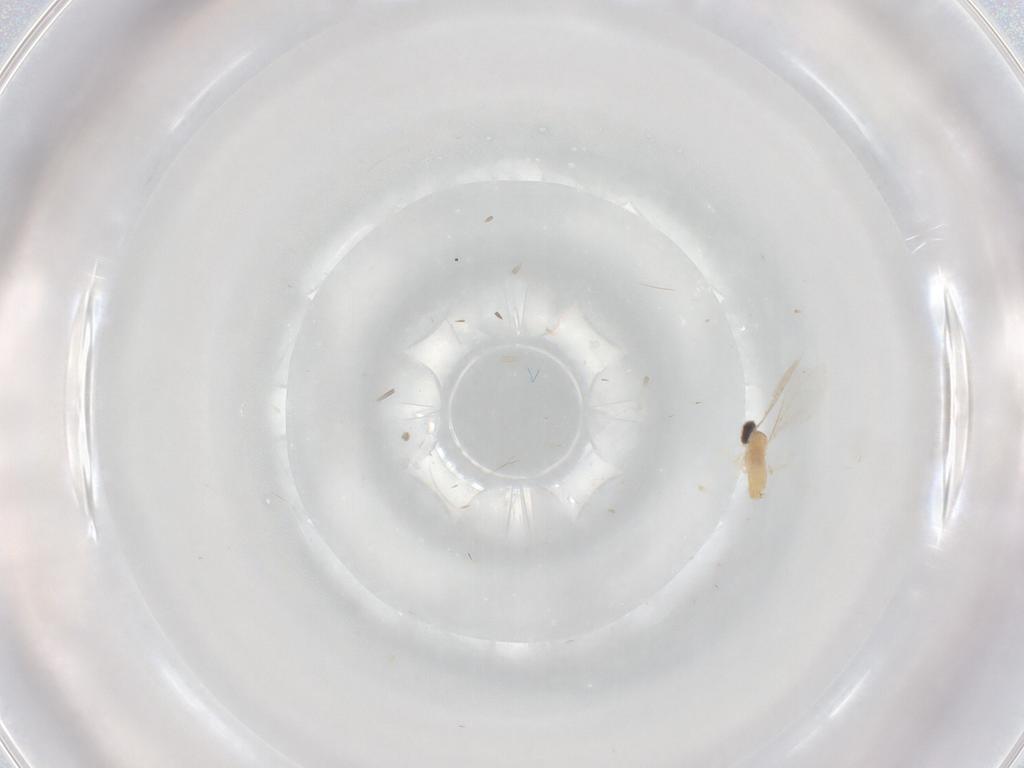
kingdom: Animalia
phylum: Arthropoda
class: Insecta
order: Diptera
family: Cecidomyiidae
